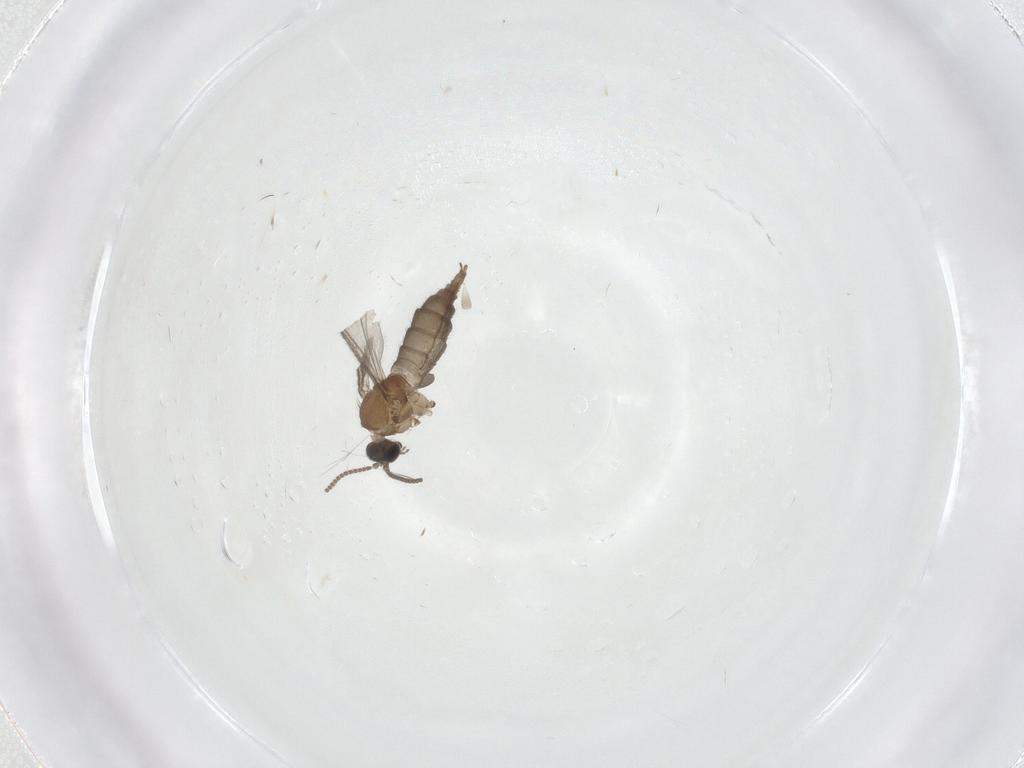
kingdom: Animalia
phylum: Arthropoda
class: Insecta
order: Diptera
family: Sciaridae
